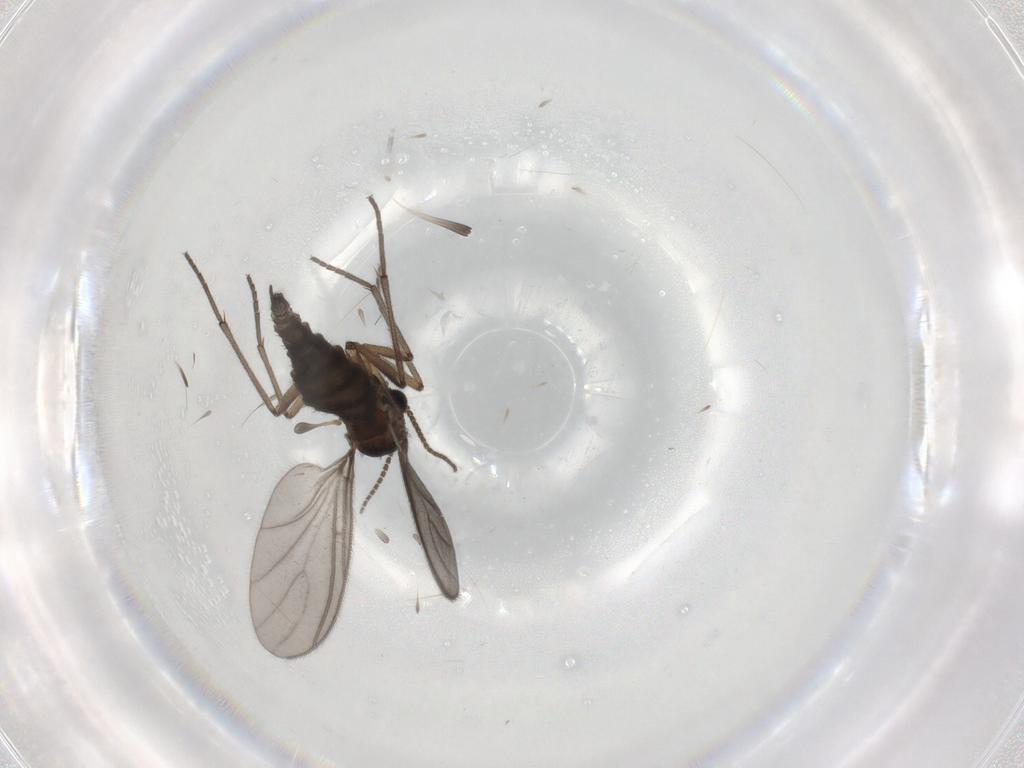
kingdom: Animalia
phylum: Arthropoda
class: Insecta
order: Diptera
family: Sciaridae
